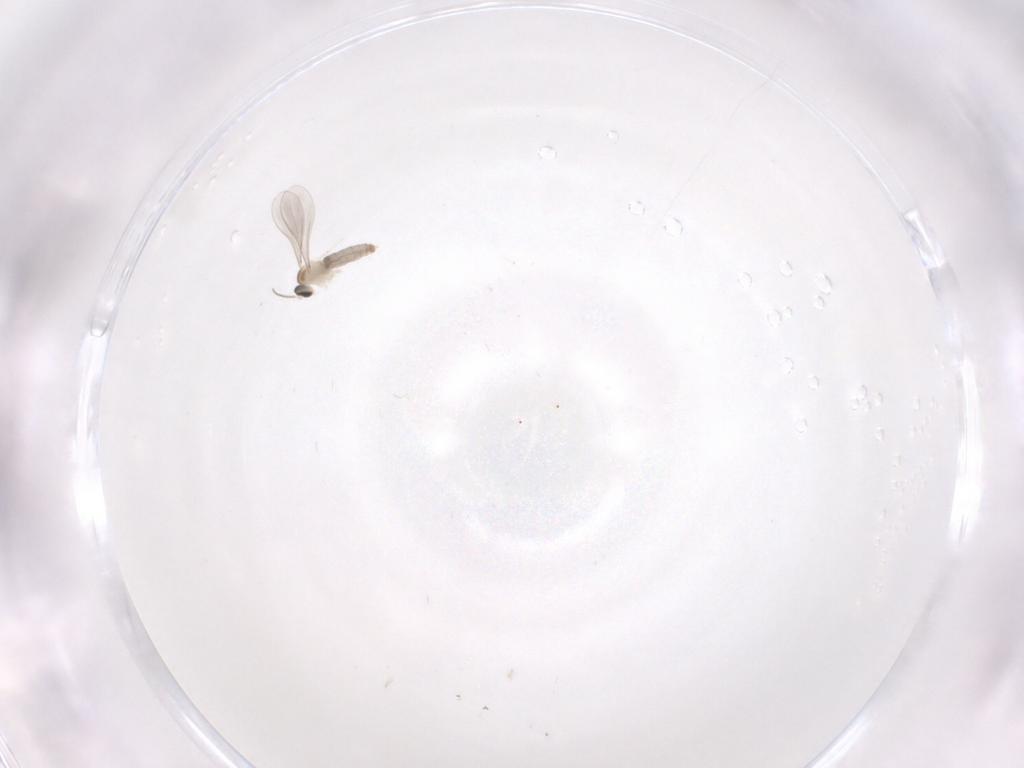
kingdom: Animalia
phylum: Arthropoda
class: Insecta
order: Diptera
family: Cecidomyiidae
